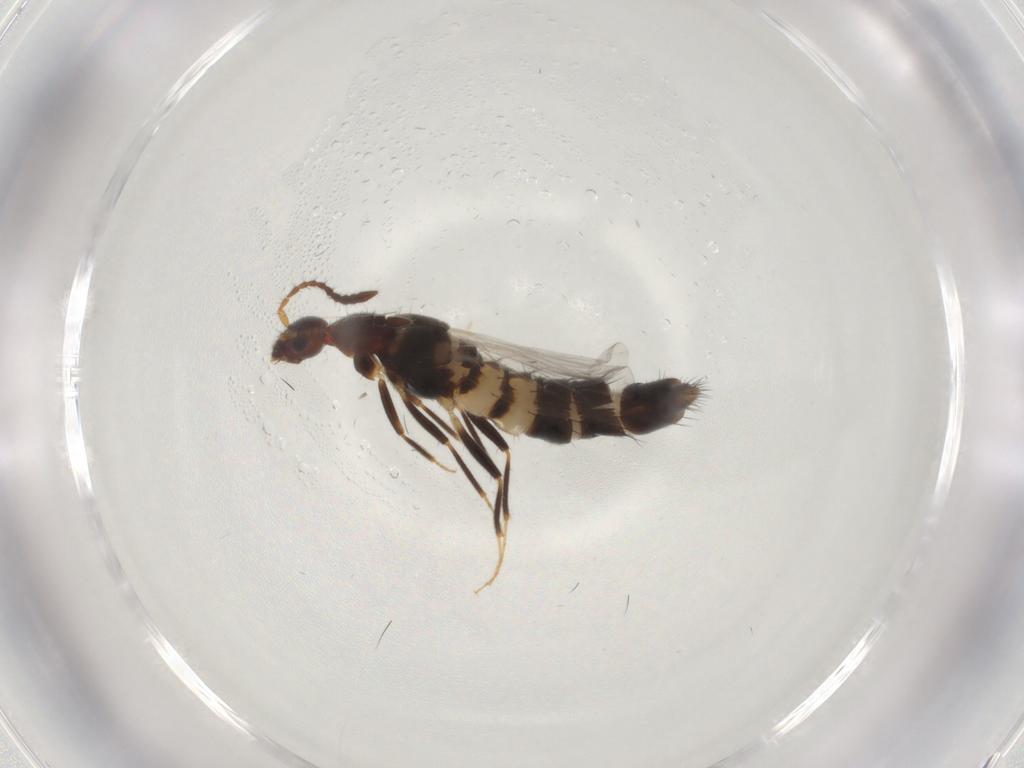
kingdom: Animalia
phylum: Arthropoda
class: Insecta
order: Coleoptera
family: Staphylinidae
